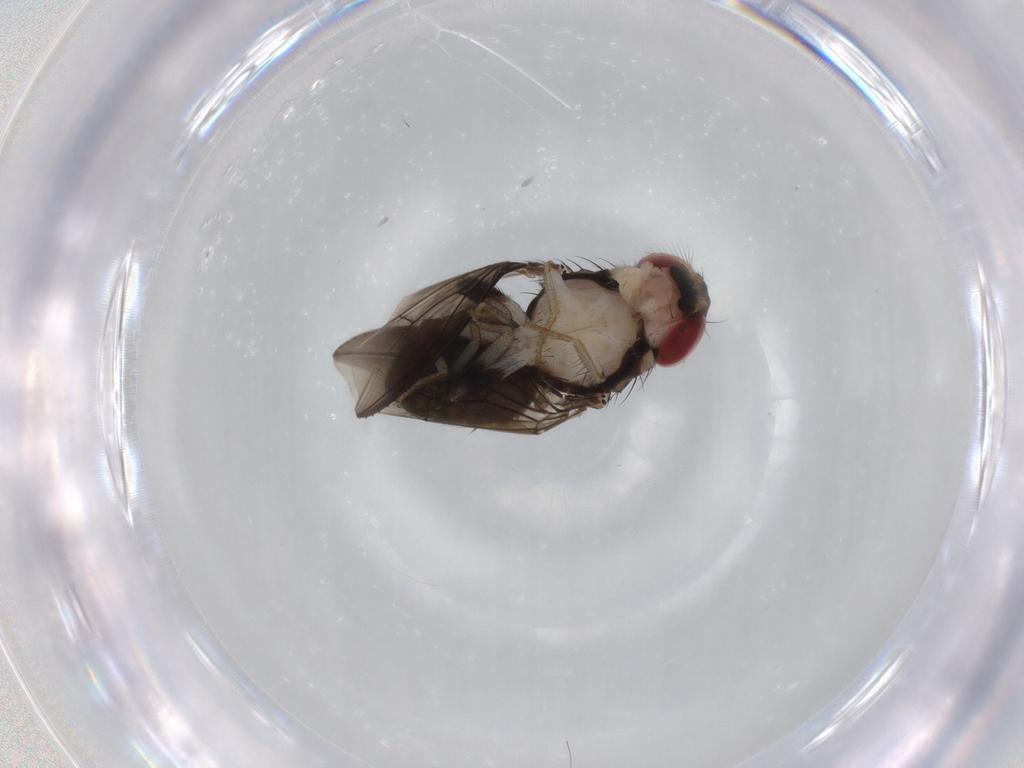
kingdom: Animalia
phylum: Arthropoda
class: Insecta
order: Diptera
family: Drosophilidae
